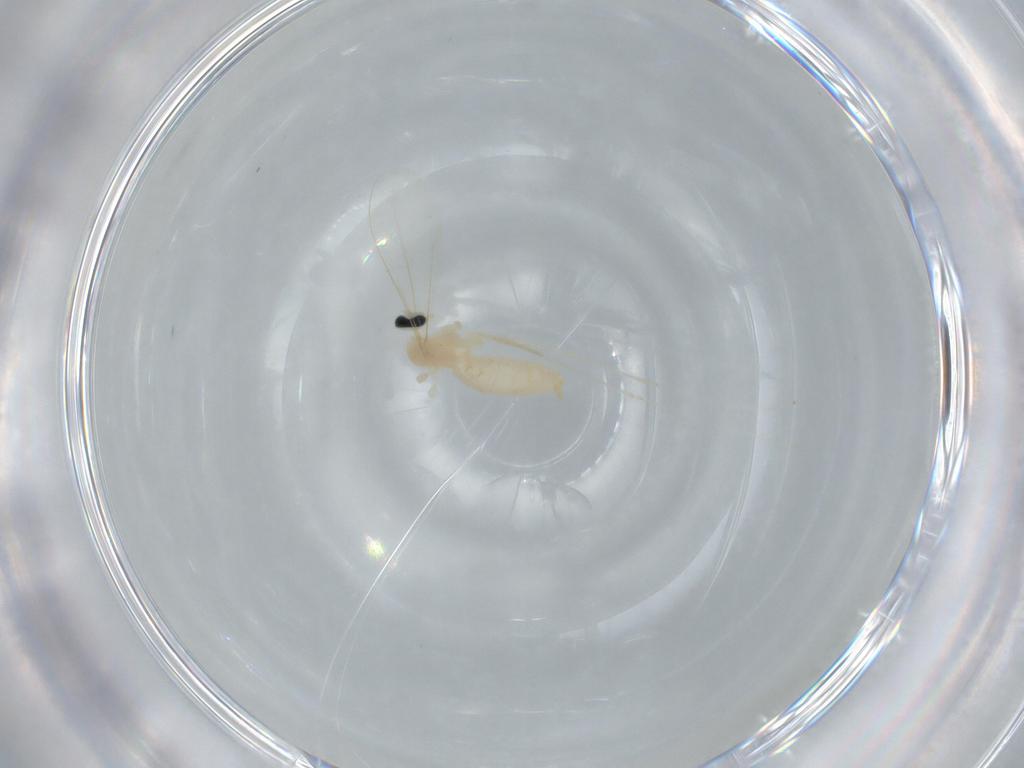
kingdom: Animalia
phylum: Arthropoda
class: Insecta
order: Diptera
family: Cecidomyiidae
